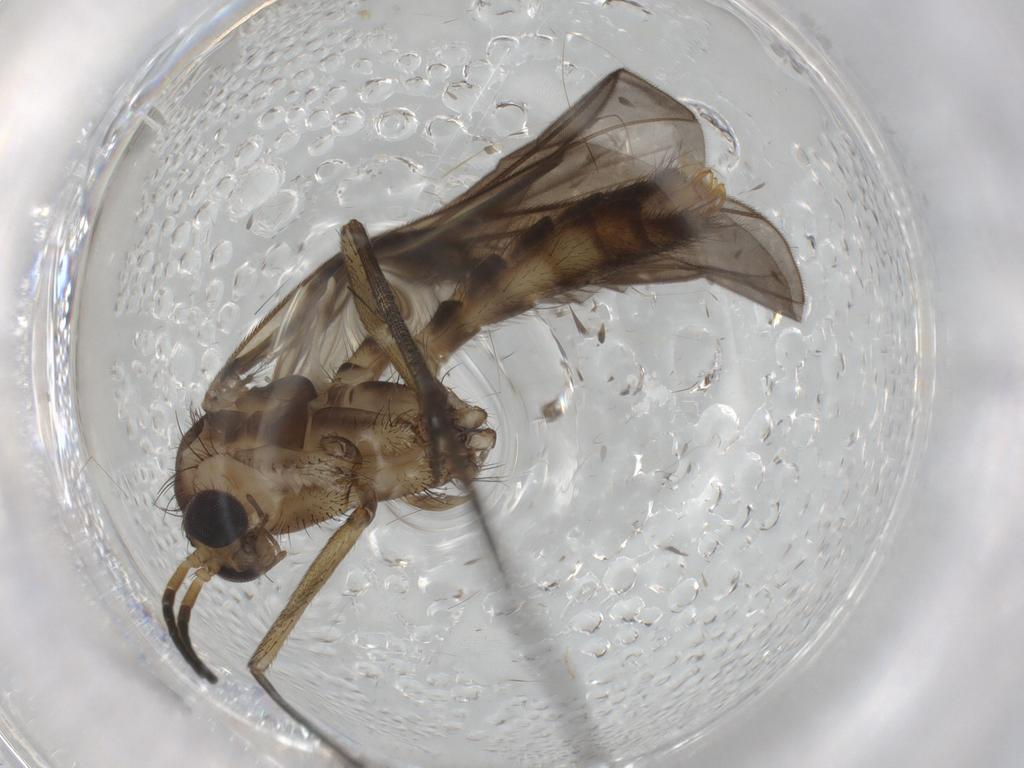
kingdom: Animalia
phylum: Arthropoda
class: Insecta
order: Diptera
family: Mycetophilidae
